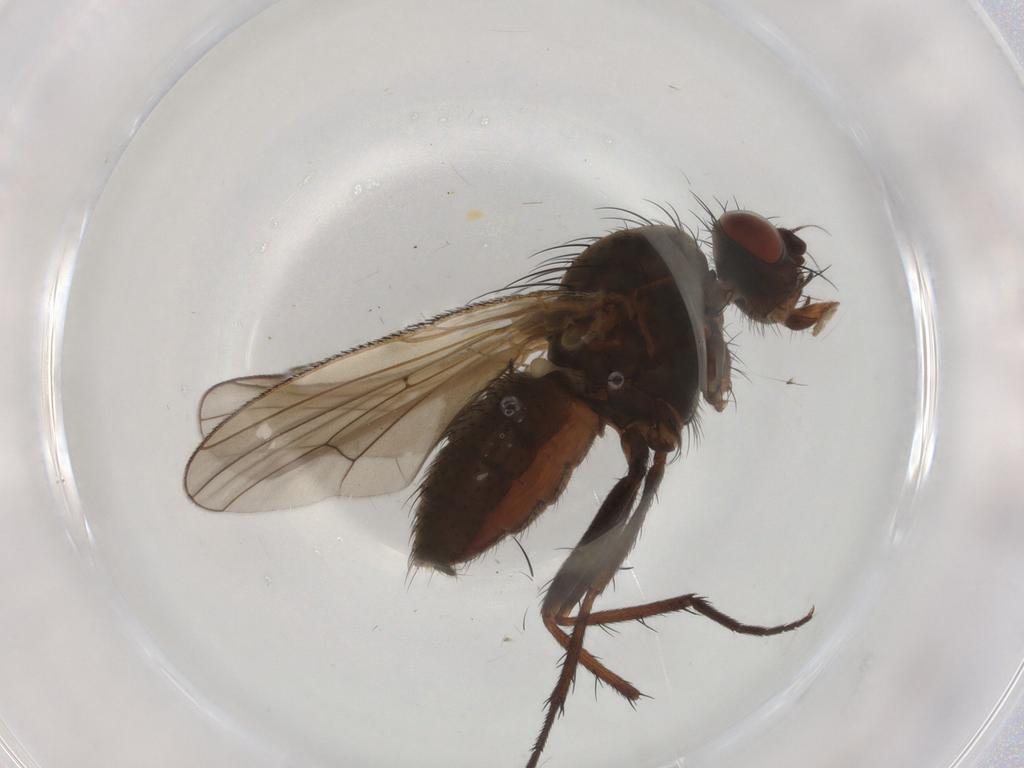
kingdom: Animalia
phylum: Arthropoda
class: Insecta
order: Diptera
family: Anthomyiidae
